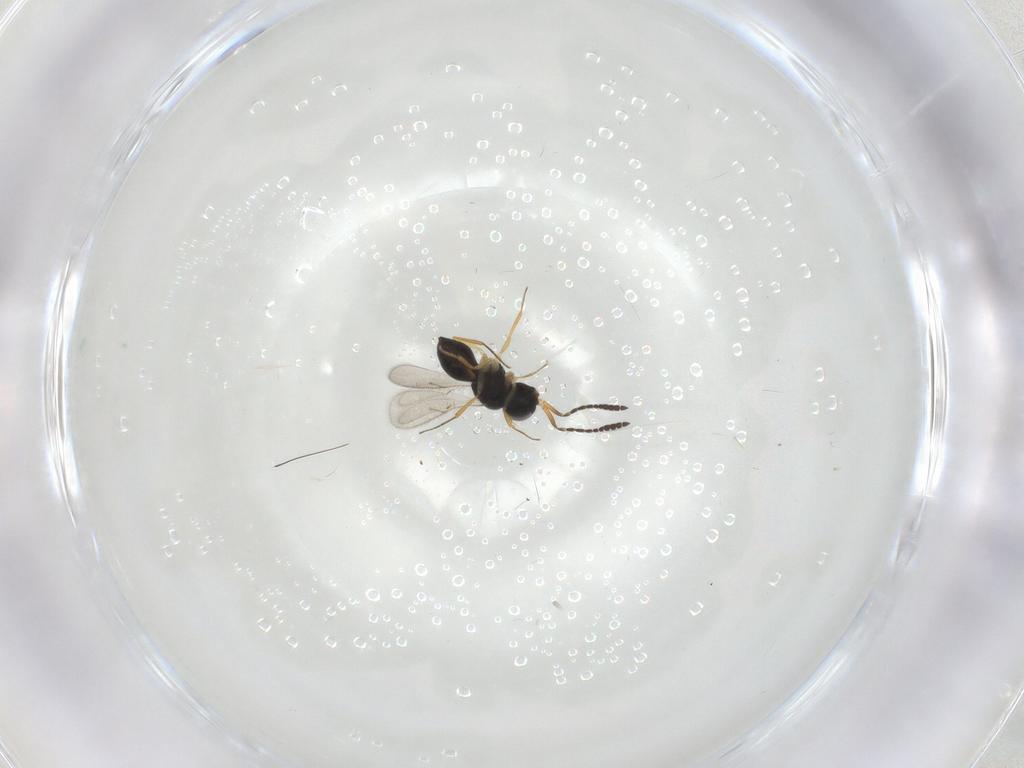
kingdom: Animalia
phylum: Arthropoda
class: Insecta
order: Hymenoptera
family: Scelionidae
